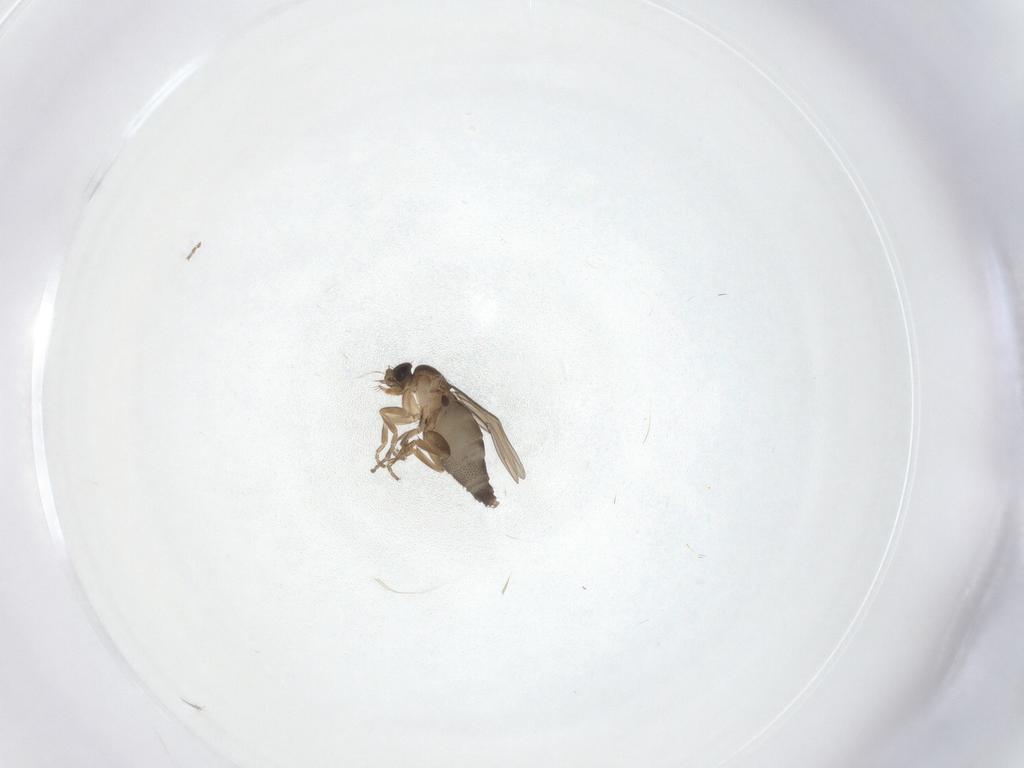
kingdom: Animalia
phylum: Arthropoda
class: Insecta
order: Diptera
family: Phoridae
